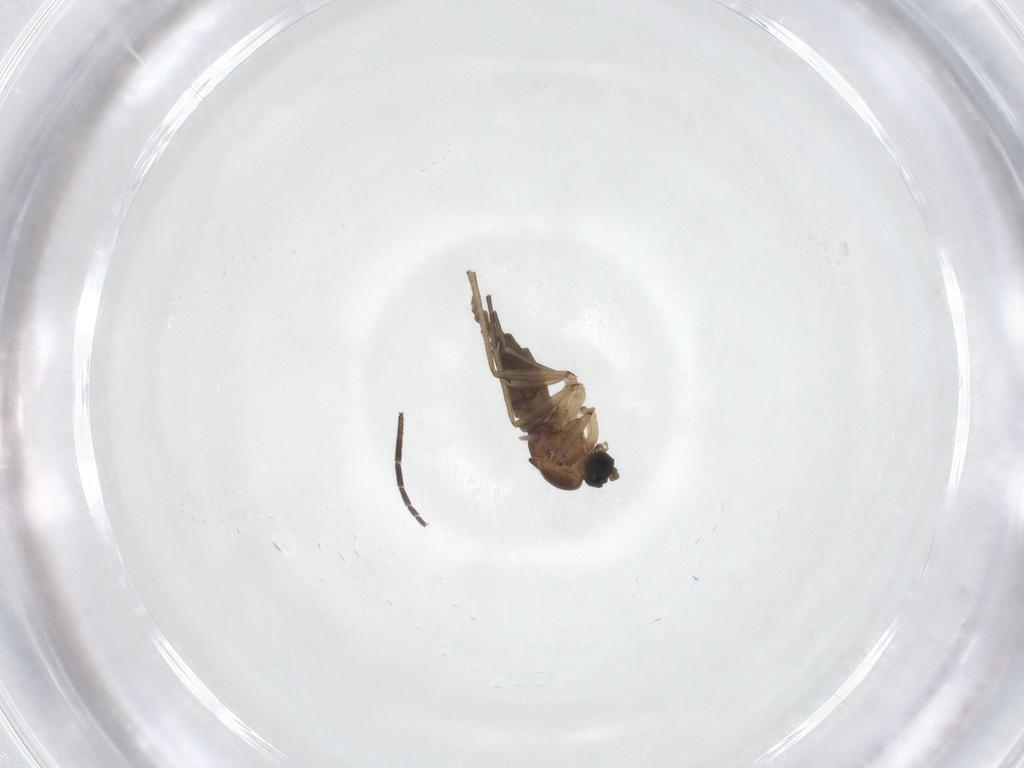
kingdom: Animalia
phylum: Arthropoda
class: Insecta
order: Diptera
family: Sciaridae
